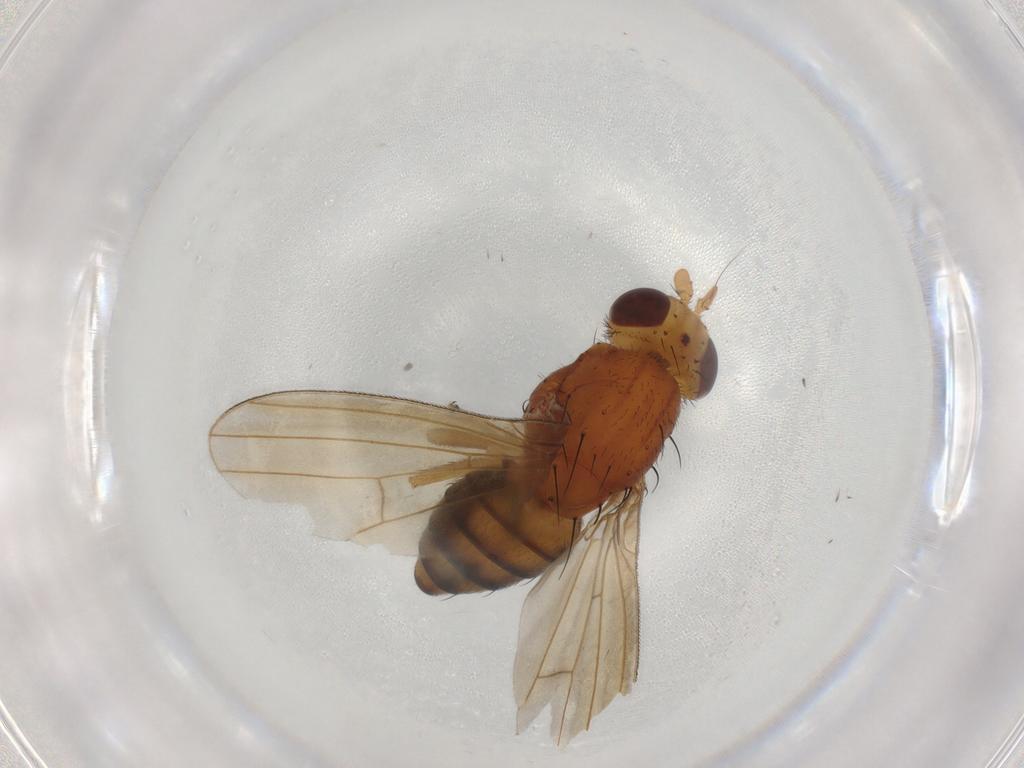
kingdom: Animalia
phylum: Arthropoda
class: Insecta
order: Diptera
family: Lauxaniidae
